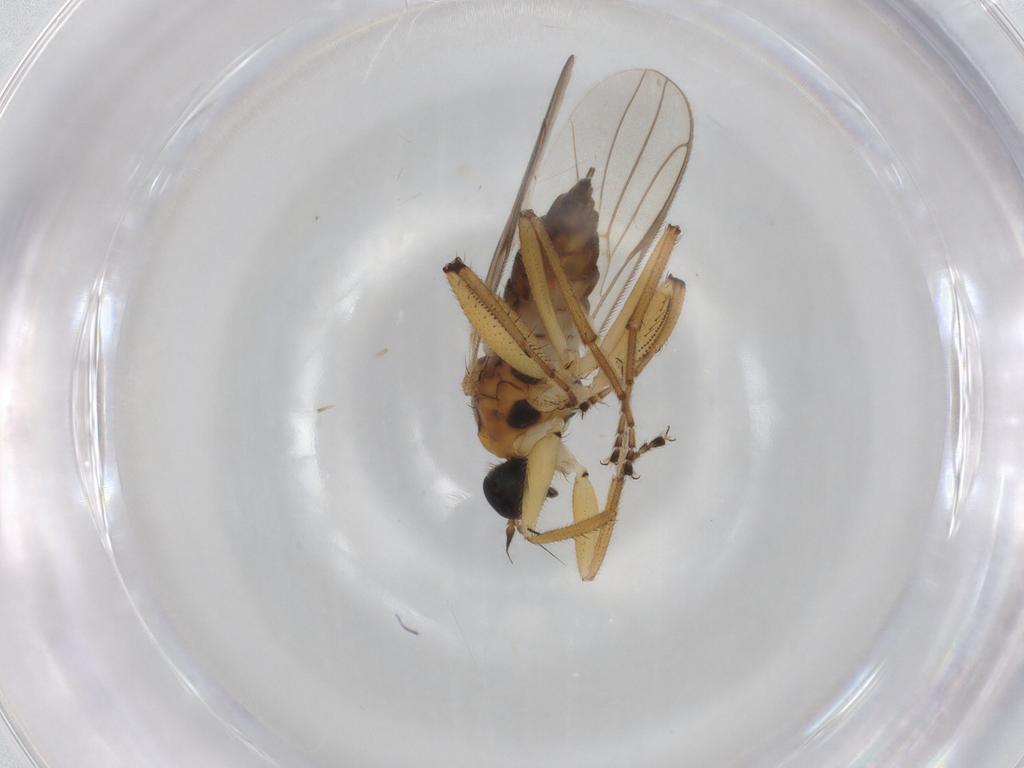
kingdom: Animalia
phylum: Arthropoda
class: Insecta
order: Diptera
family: Hybotidae
